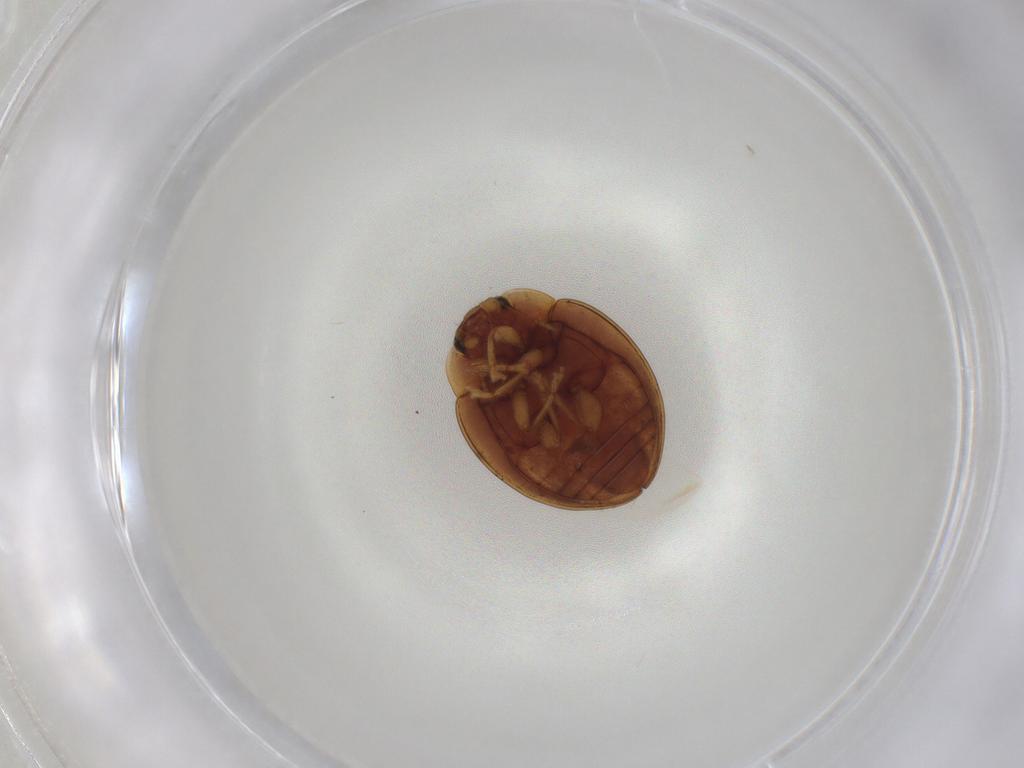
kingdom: Animalia
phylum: Arthropoda
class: Insecta
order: Coleoptera
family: Coccinellidae
